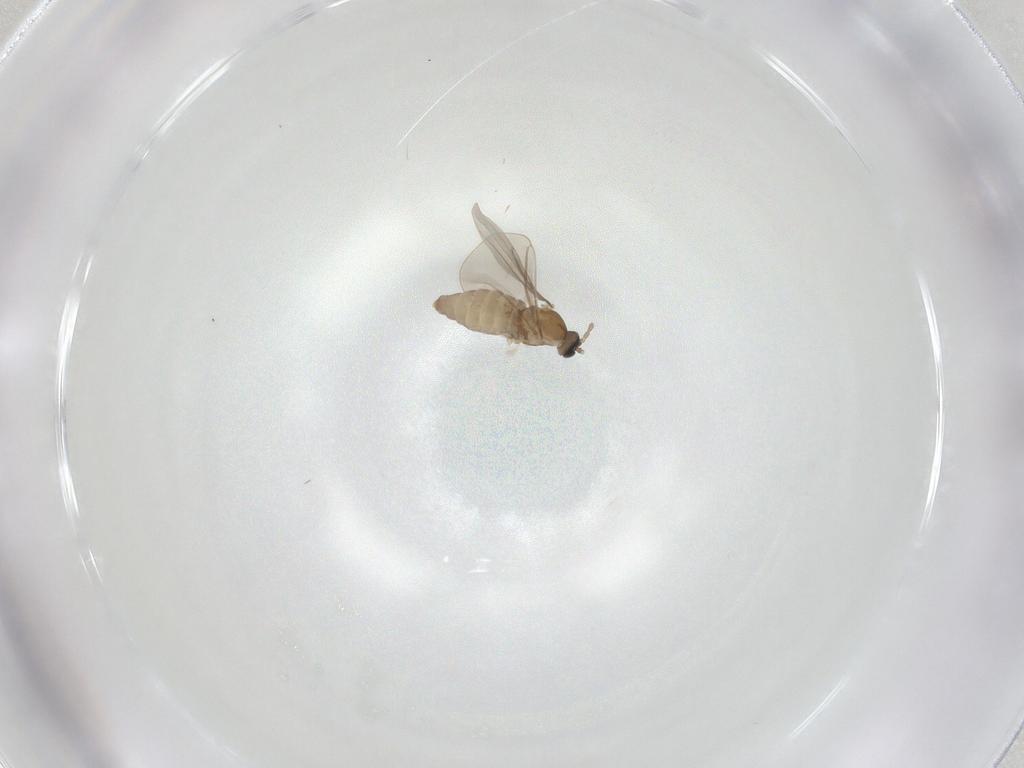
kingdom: Animalia
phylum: Arthropoda
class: Insecta
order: Diptera
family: Cecidomyiidae
